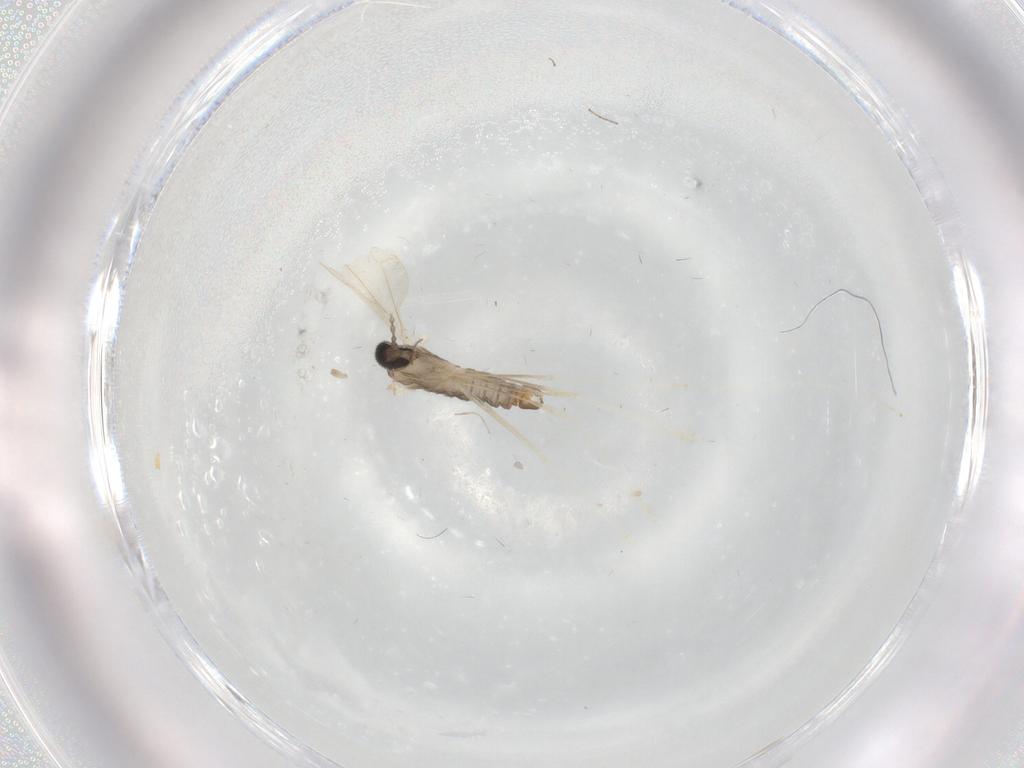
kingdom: Animalia
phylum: Arthropoda
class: Insecta
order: Diptera
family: Cecidomyiidae
